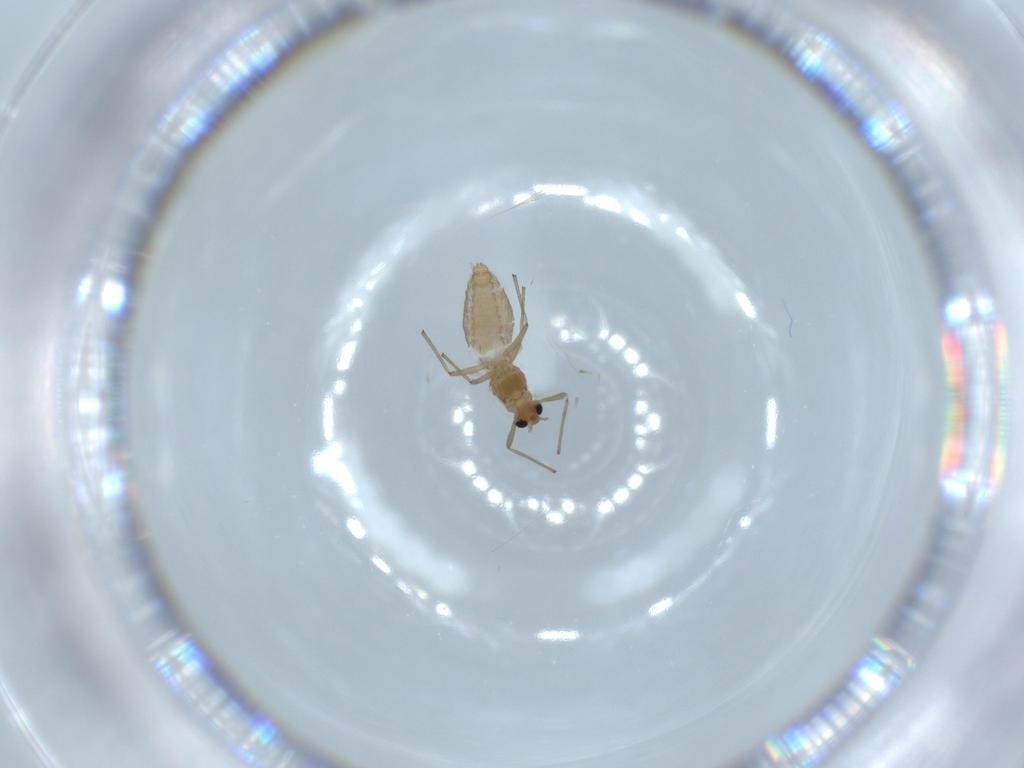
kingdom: Animalia
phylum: Arthropoda
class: Insecta
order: Diptera
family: Chironomidae
